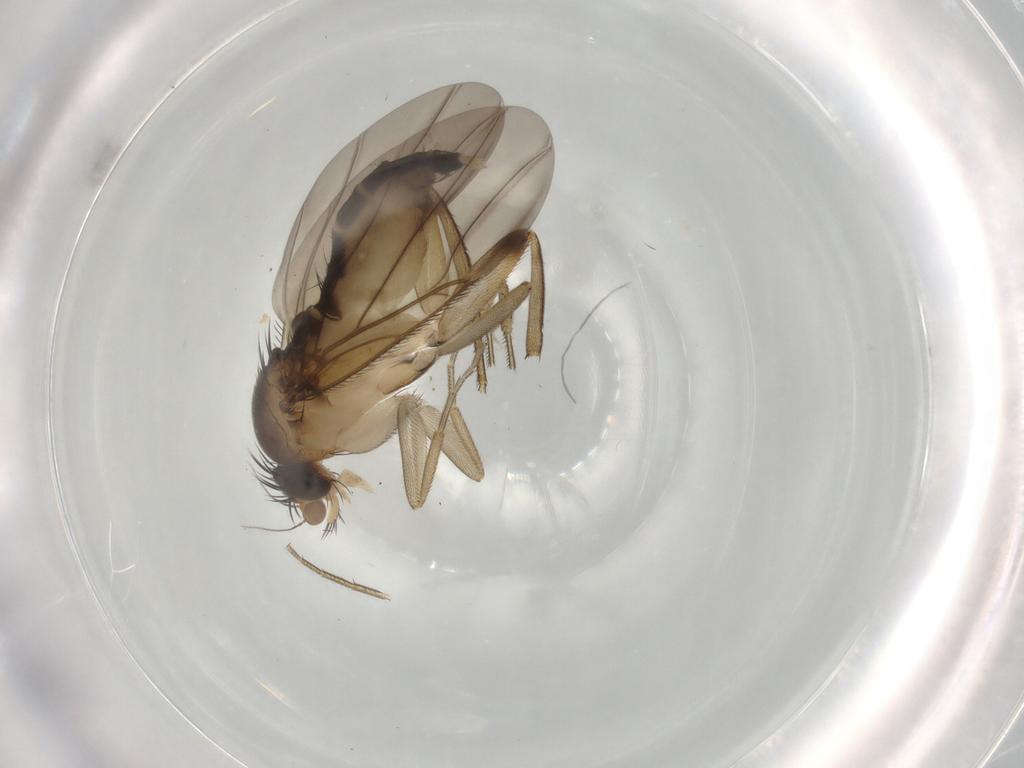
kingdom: Animalia
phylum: Arthropoda
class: Insecta
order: Diptera
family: Phoridae
